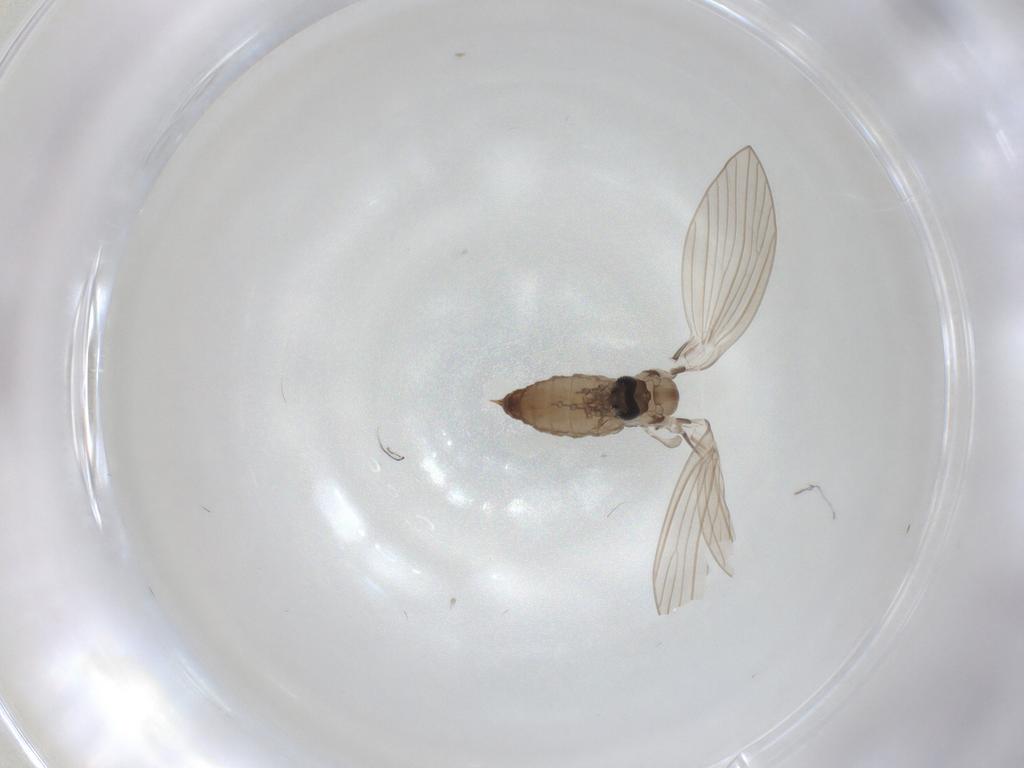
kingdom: Animalia
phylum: Arthropoda
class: Insecta
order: Diptera
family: Psychodidae
